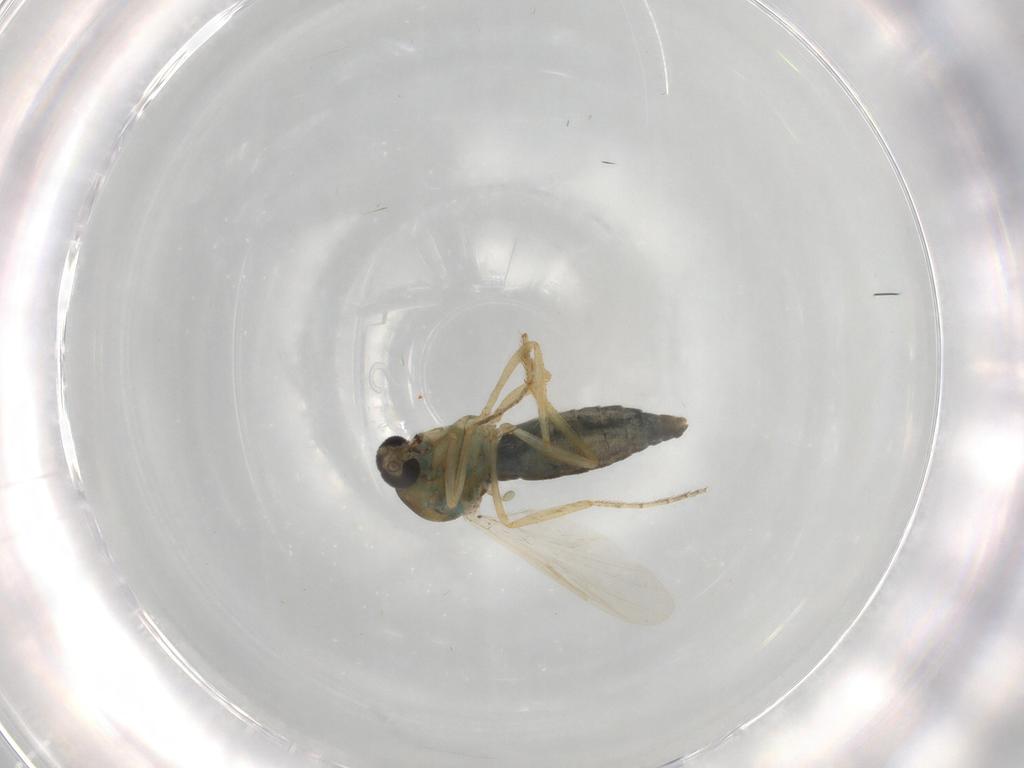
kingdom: Animalia
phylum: Arthropoda
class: Insecta
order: Diptera
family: Ceratopogonidae
